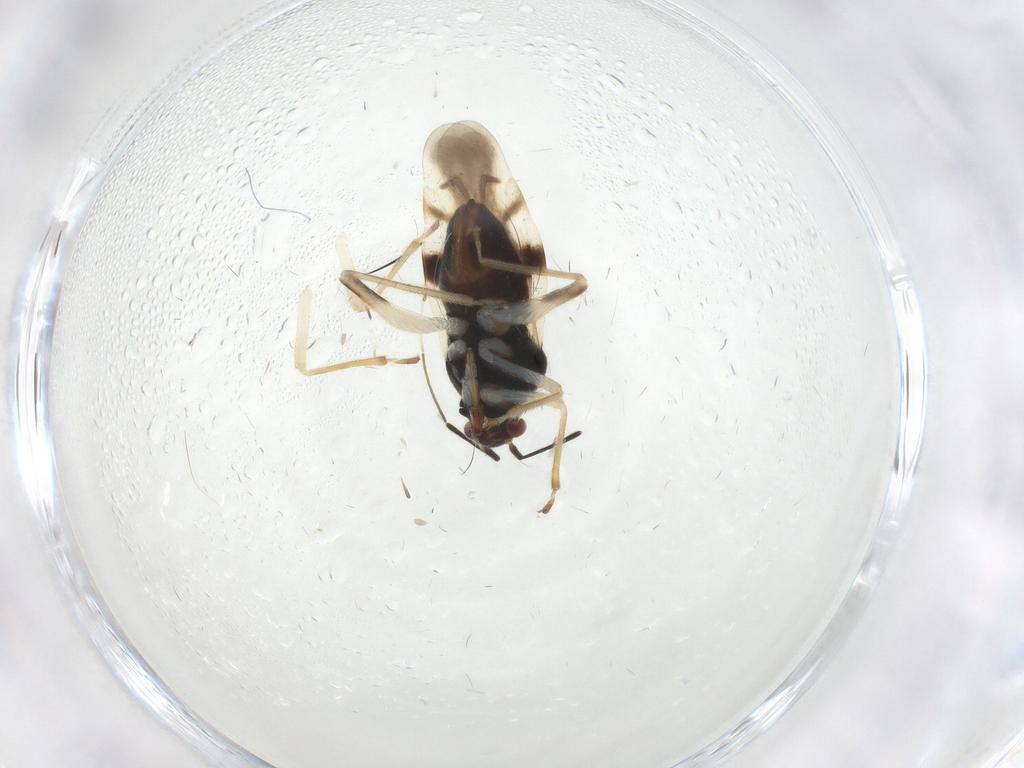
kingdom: Animalia
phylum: Arthropoda
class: Insecta
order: Hemiptera
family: Miridae
